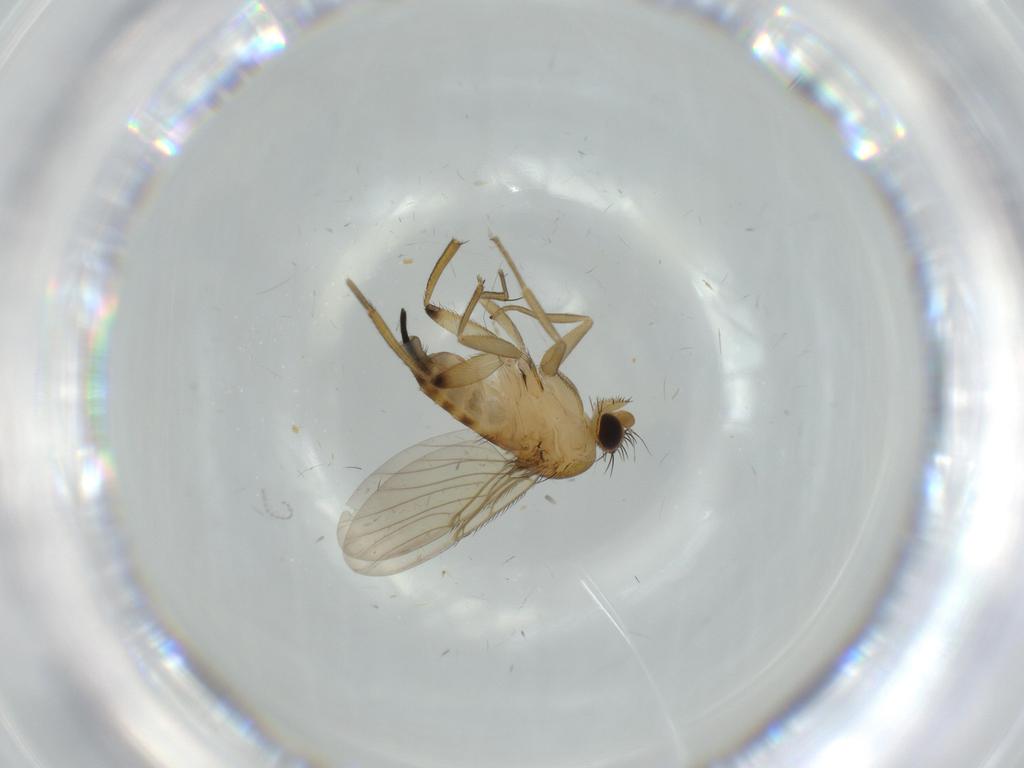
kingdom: Animalia
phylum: Arthropoda
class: Insecta
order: Diptera
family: Phoridae
